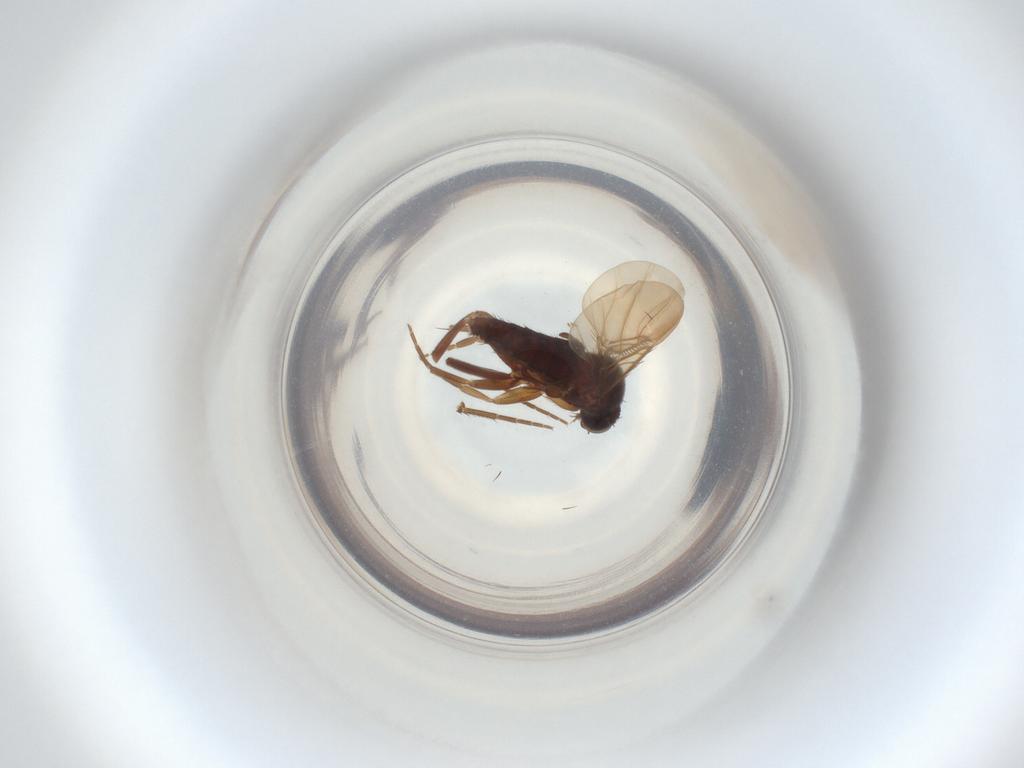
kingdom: Animalia
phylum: Arthropoda
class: Insecta
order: Diptera
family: Phoridae
